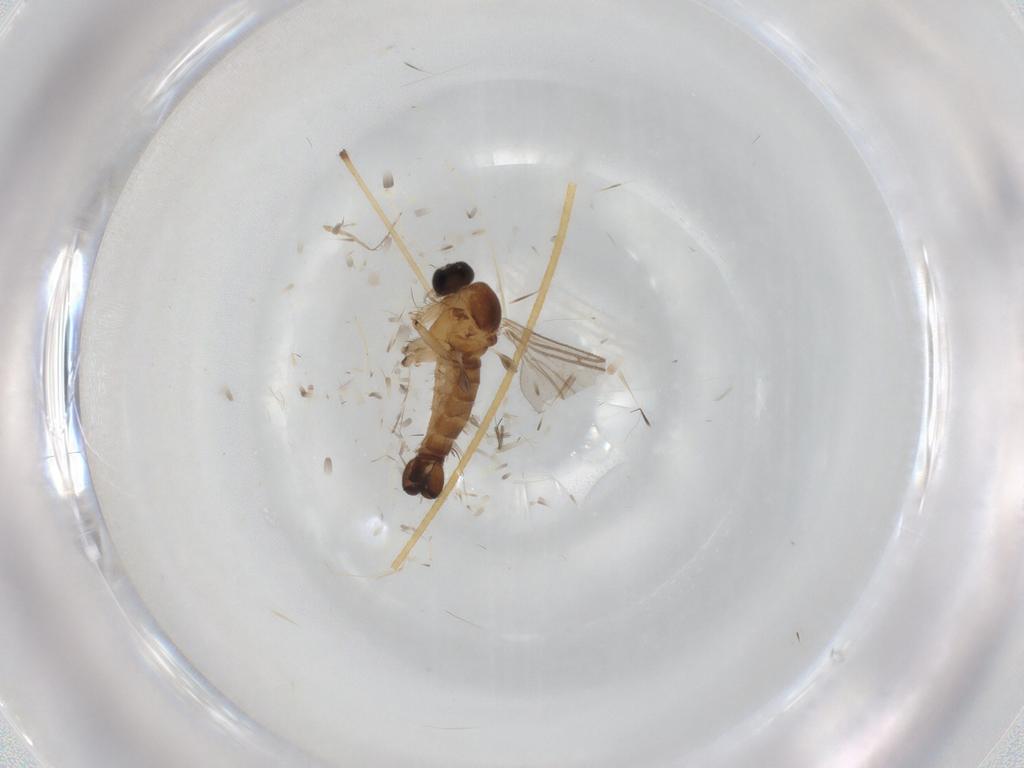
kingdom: Animalia
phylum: Arthropoda
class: Insecta
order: Diptera
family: Sciaridae
